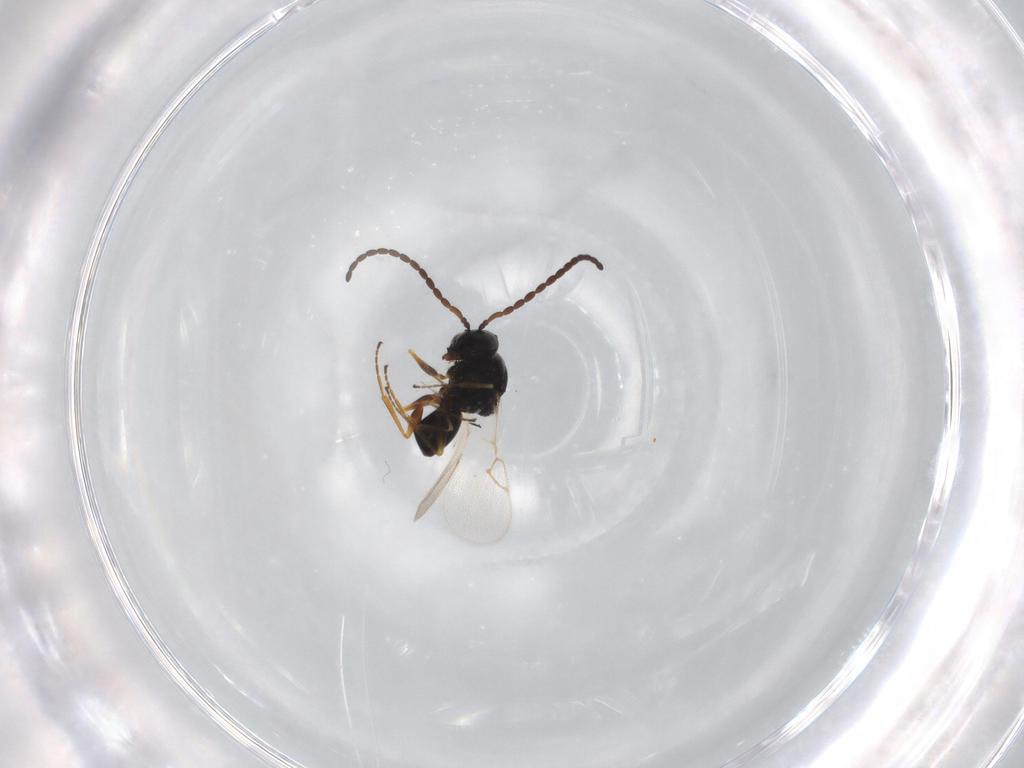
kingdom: Animalia
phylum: Arthropoda
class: Insecta
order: Hymenoptera
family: Figitidae
